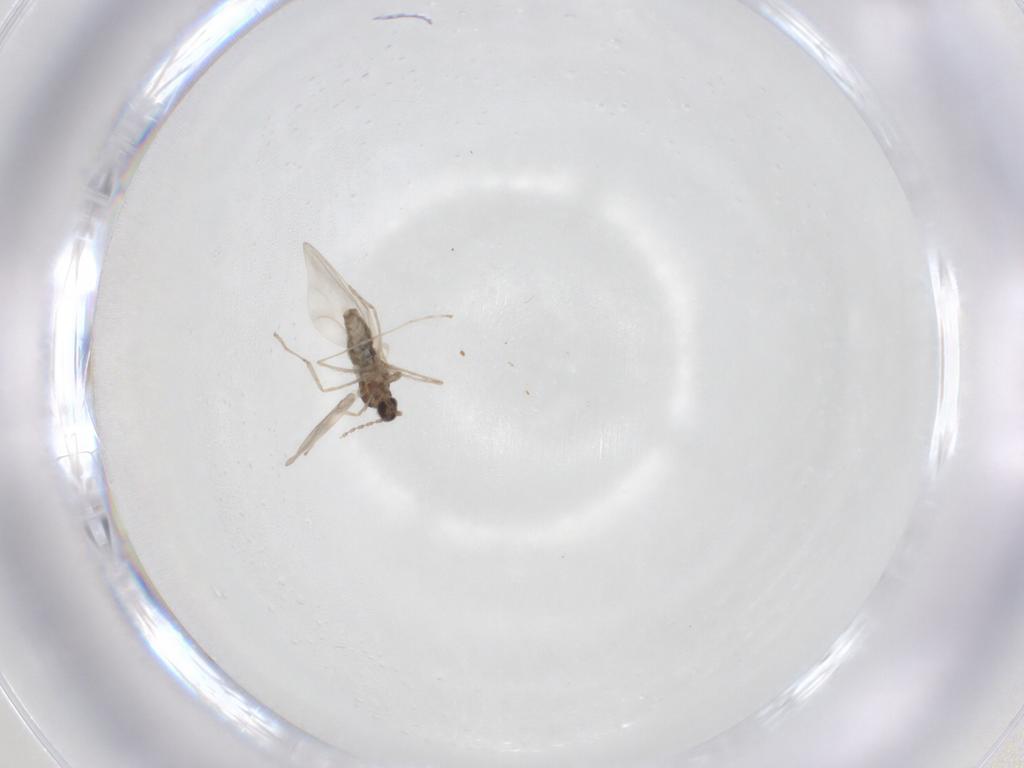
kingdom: Animalia
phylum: Arthropoda
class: Insecta
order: Diptera
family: Cecidomyiidae
